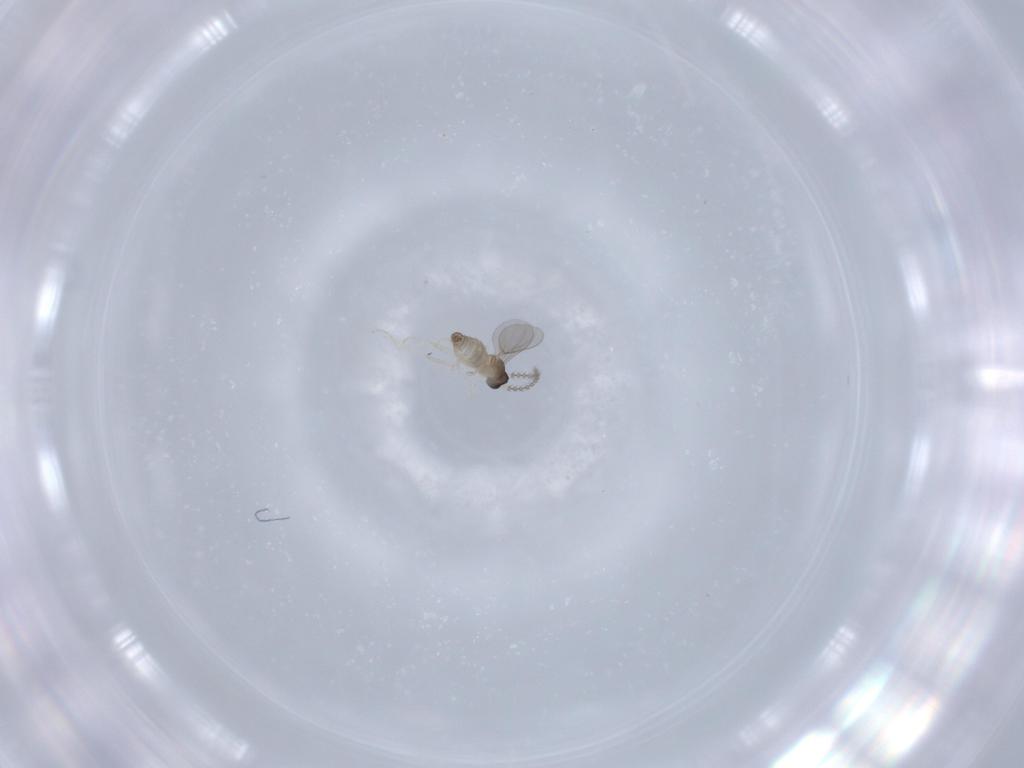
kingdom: Animalia
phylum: Arthropoda
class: Insecta
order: Diptera
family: Cecidomyiidae
